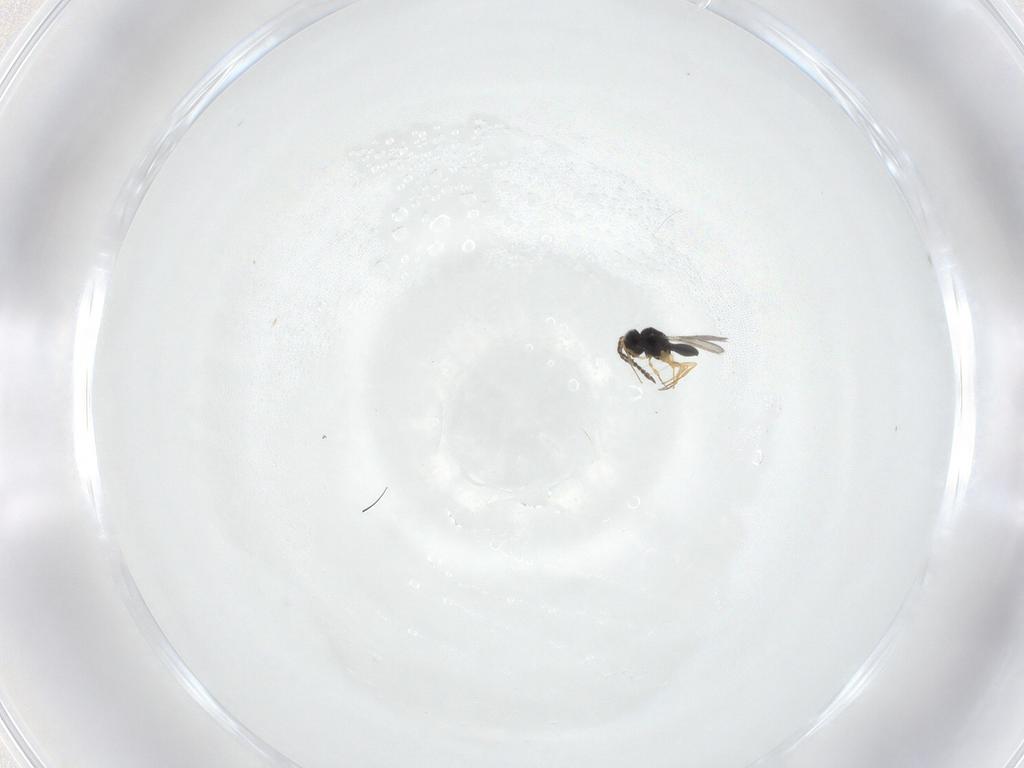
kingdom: Animalia
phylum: Arthropoda
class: Insecta
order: Hymenoptera
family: Scelionidae
